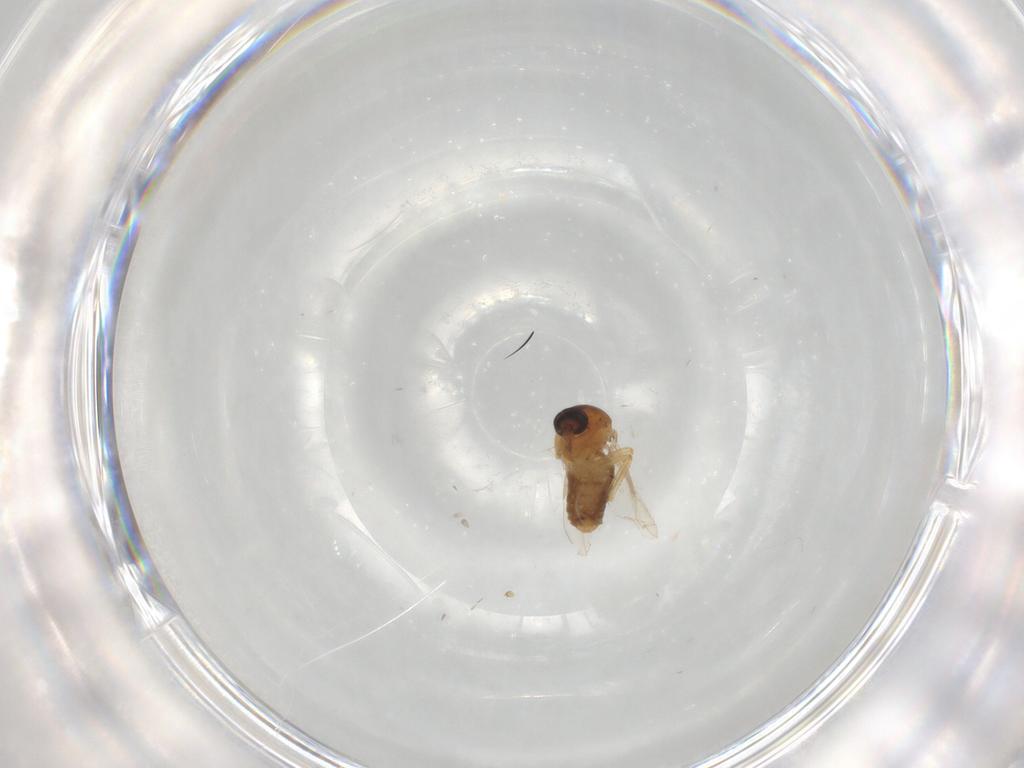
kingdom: Animalia
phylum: Arthropoda
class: Insecta
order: Diptera
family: Ceratopogonidae
